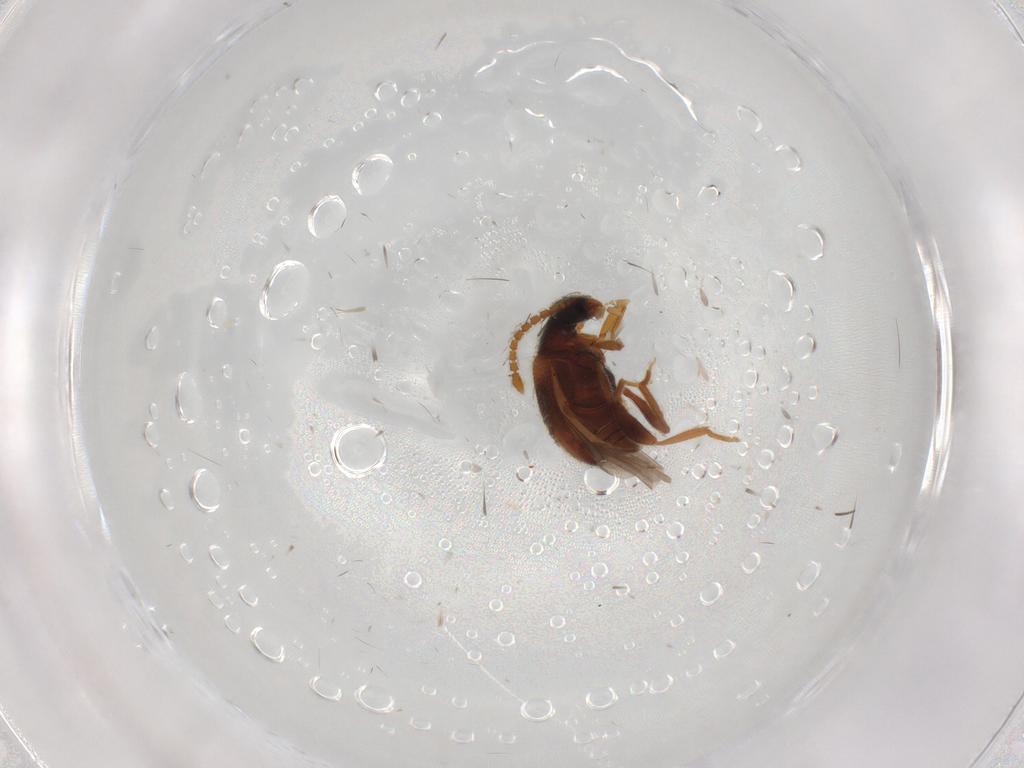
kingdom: Animalia
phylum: Arthropoda
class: Insecta
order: Coleoptera
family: Aderidae
